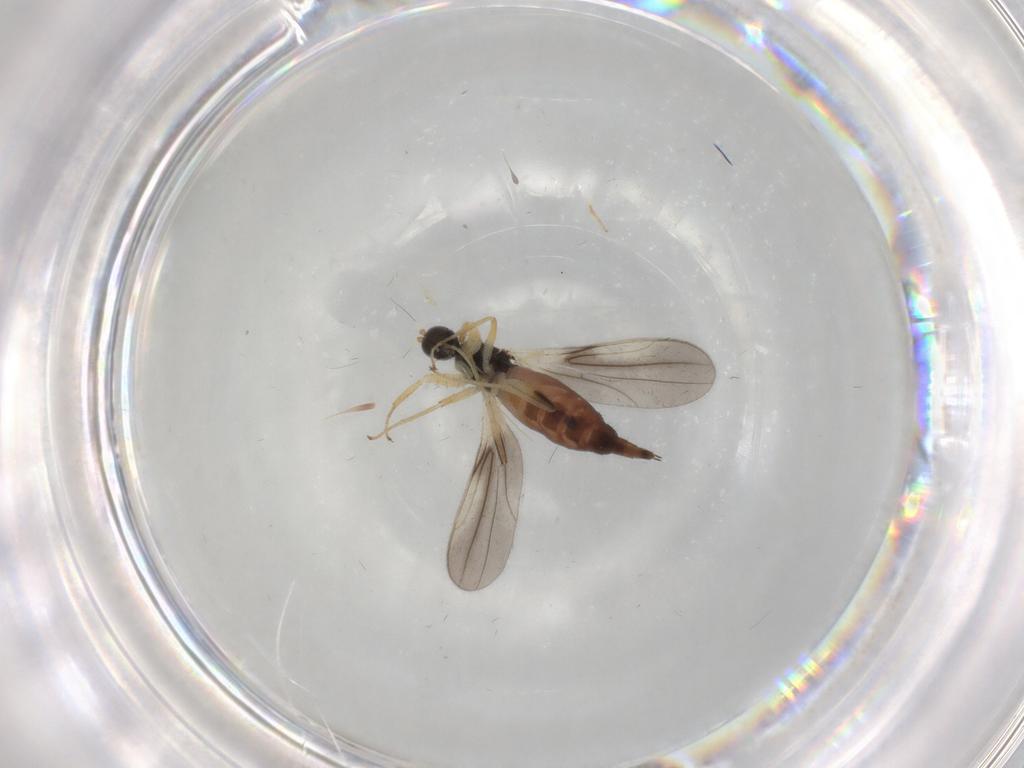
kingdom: Animalia
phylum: Arthropoda
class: Insecta
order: Diptera
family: Hybotidae
